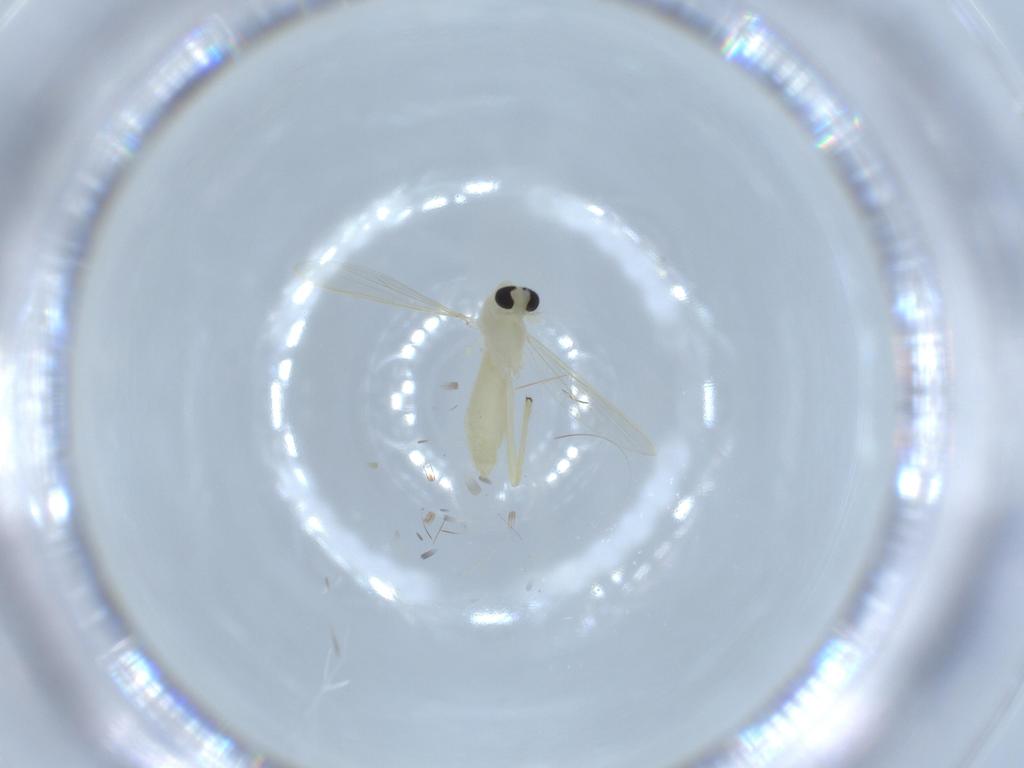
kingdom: Animalia
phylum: Arthropoda
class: Insecta
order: Diptera
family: Chironomidae
